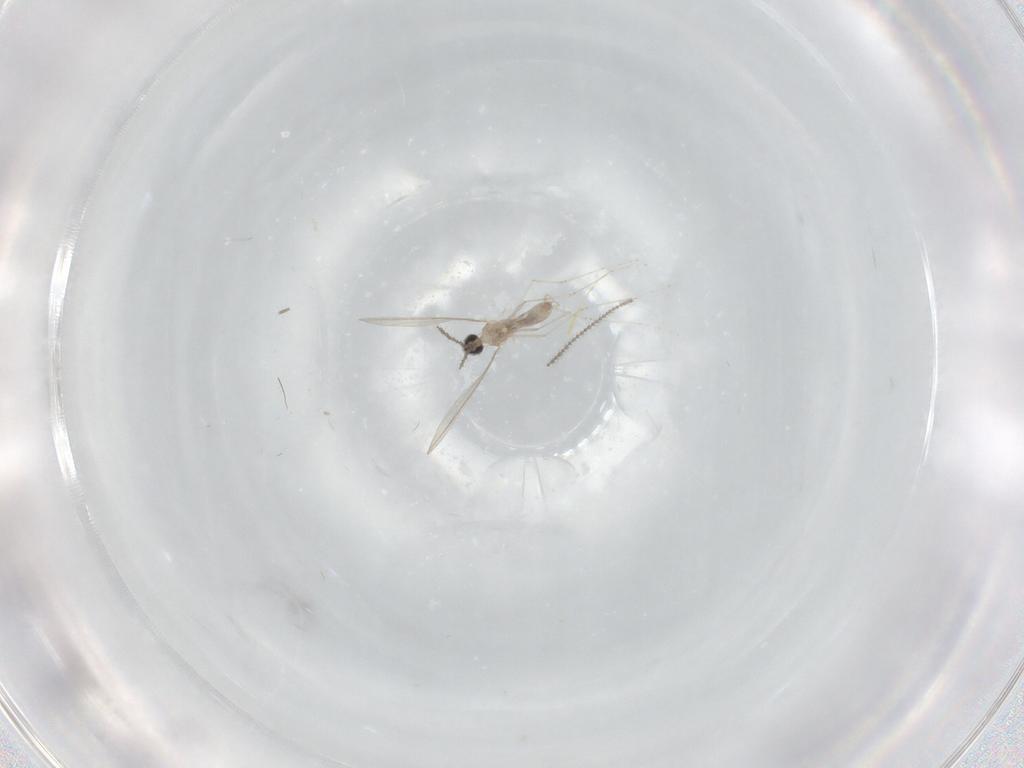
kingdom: Animalia
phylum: Arthropoda
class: Insecta
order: Diptera
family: Cecidomyiidae
